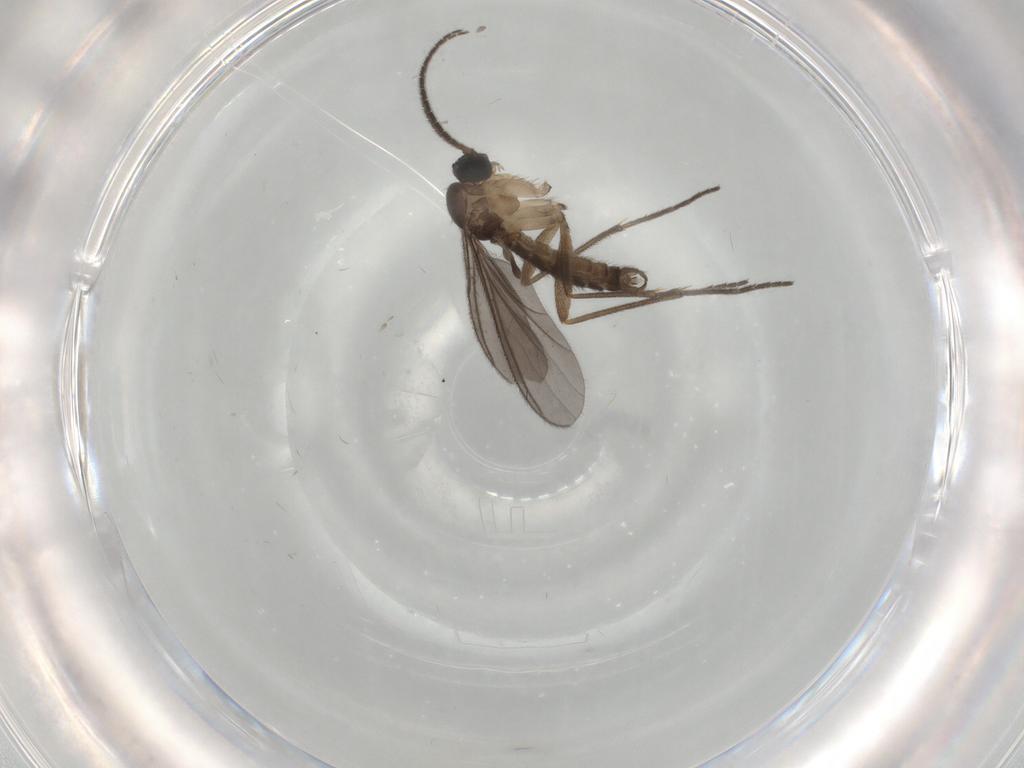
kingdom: Animalia
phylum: Arthropoda
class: Insecta
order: Diptera
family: Sciaridae
